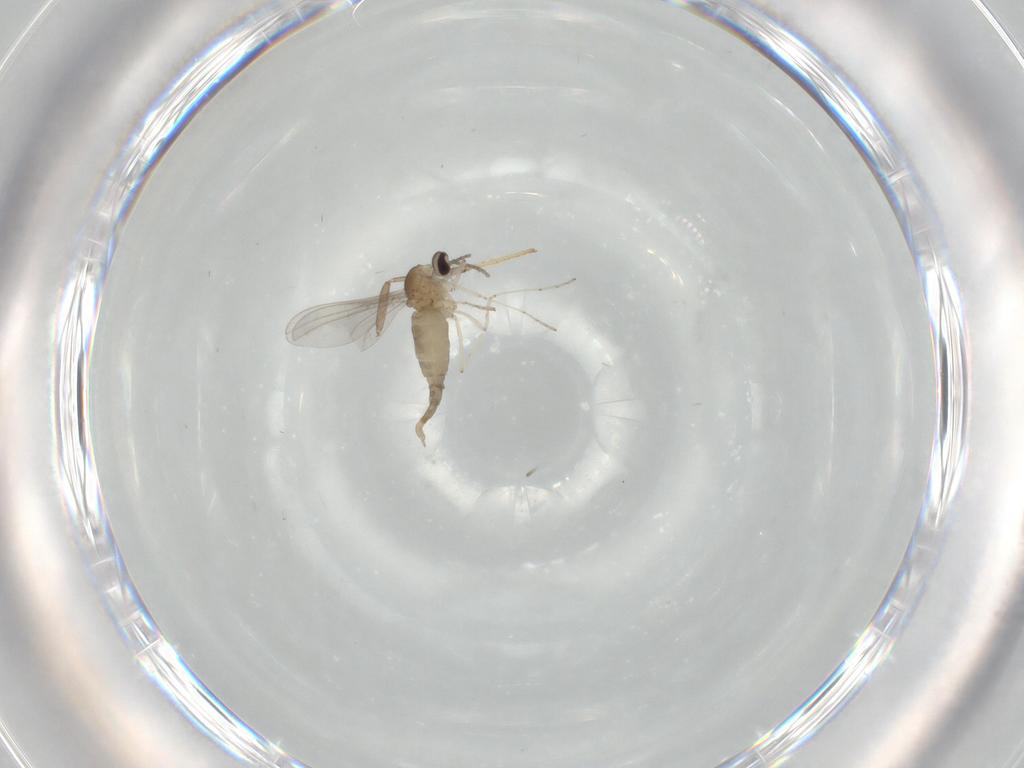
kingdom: Animalia
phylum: Arthropoda
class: Insecta
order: Diptera
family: Cecidomyiidae
